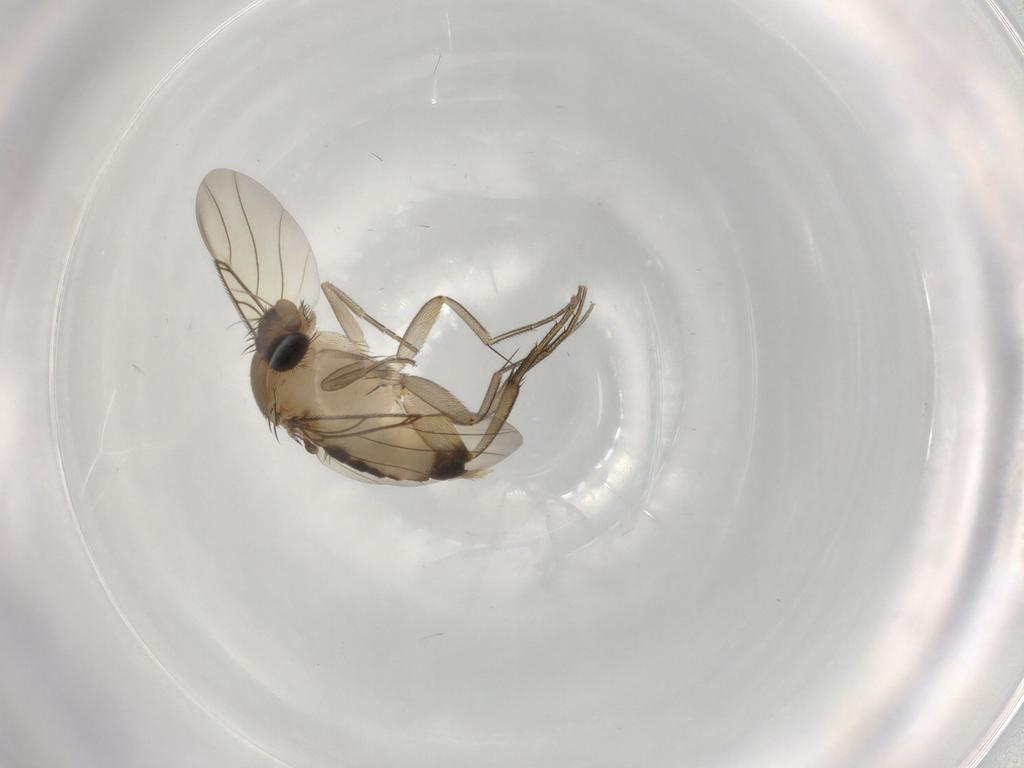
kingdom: Animalia
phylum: Arthropoda
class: Insecta
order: Diptera
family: Phoridae
